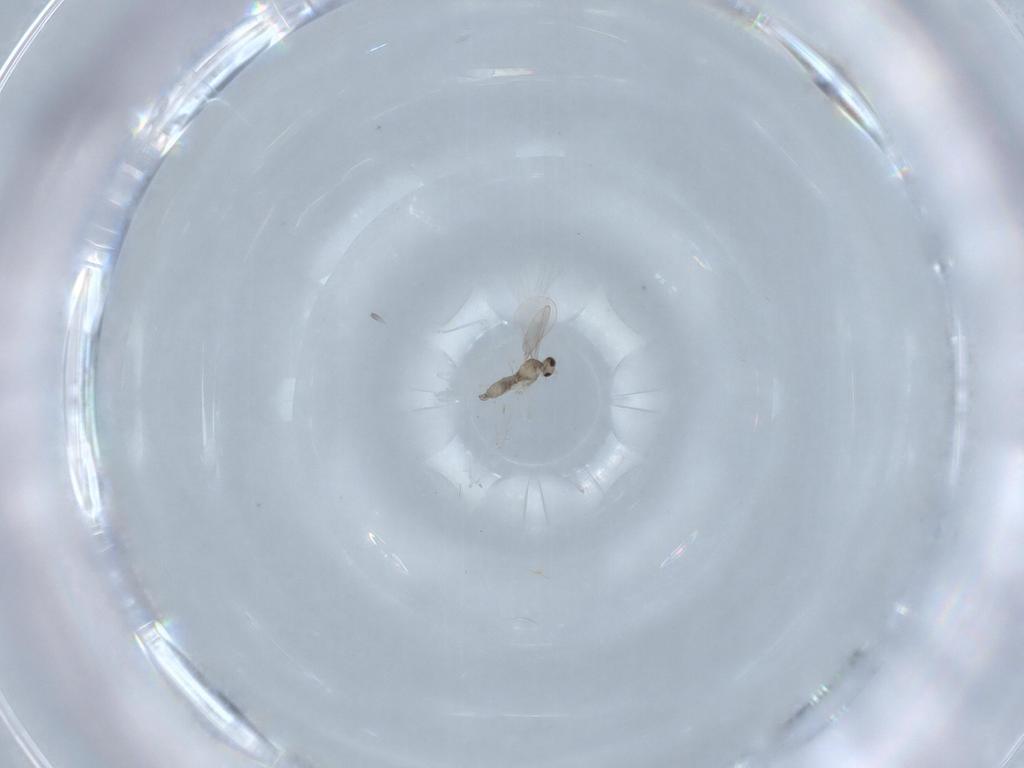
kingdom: Animalia
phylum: Arthropoda
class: Insecta
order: Diptera
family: Cecidomyiidae
